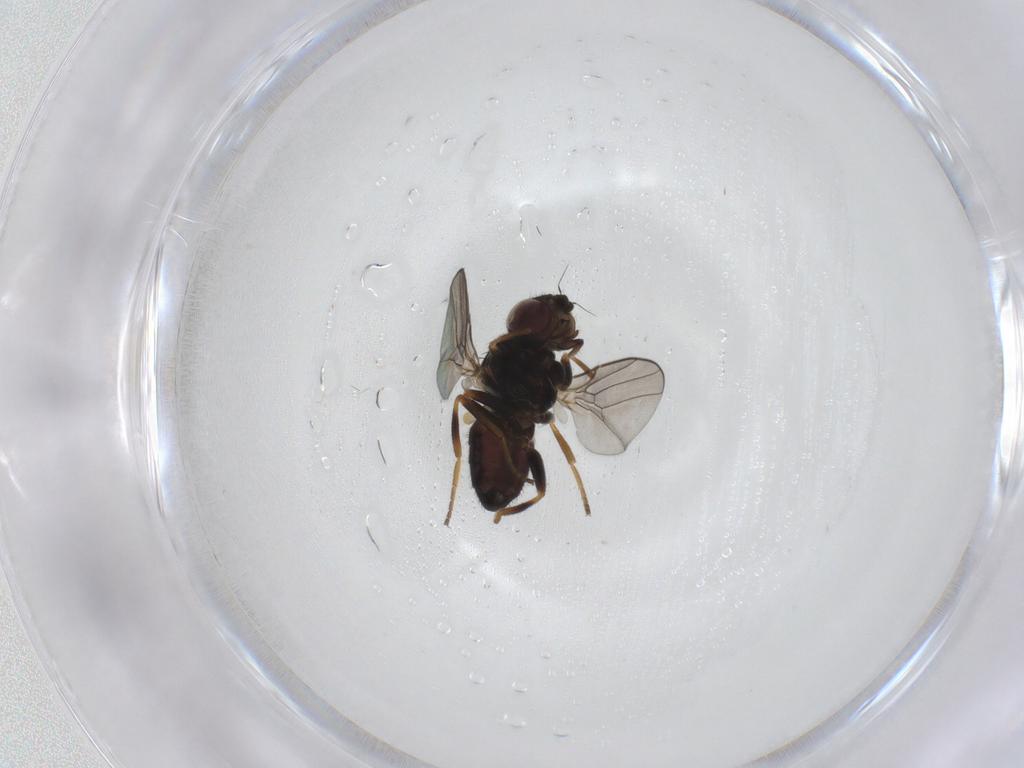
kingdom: Animalia
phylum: Arthropoda
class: Insecta
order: Diptera
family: Chloropidae
